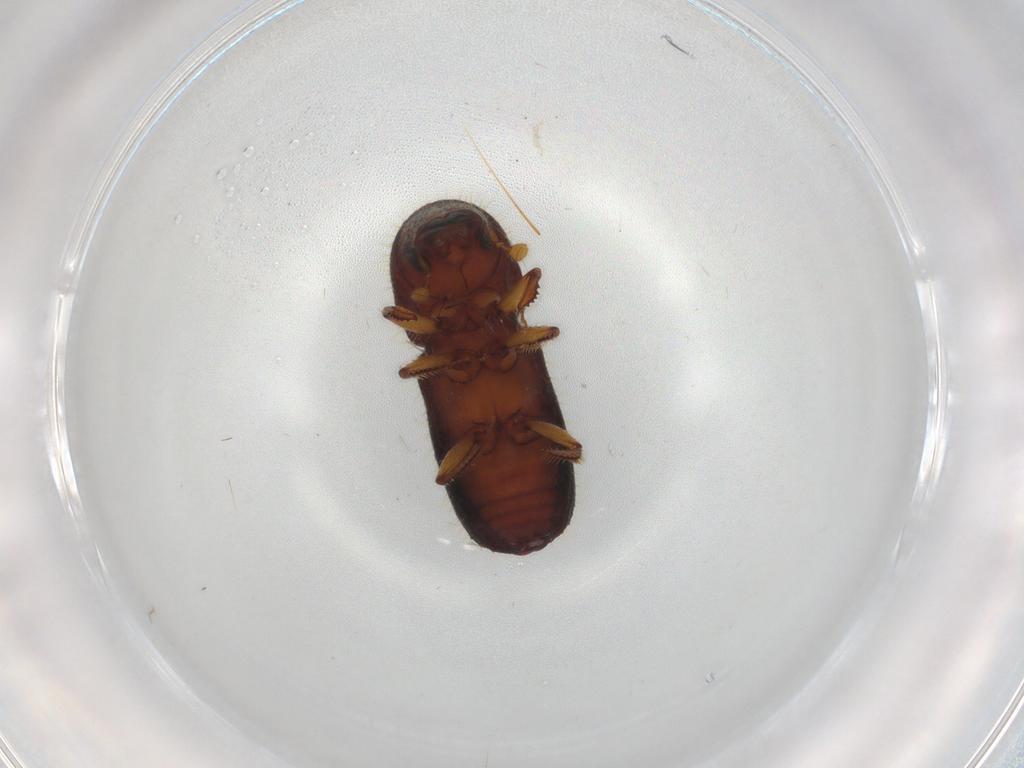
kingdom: Animalia
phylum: Arthropoda
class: Insecta
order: Coleoptera
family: Curculionidae
